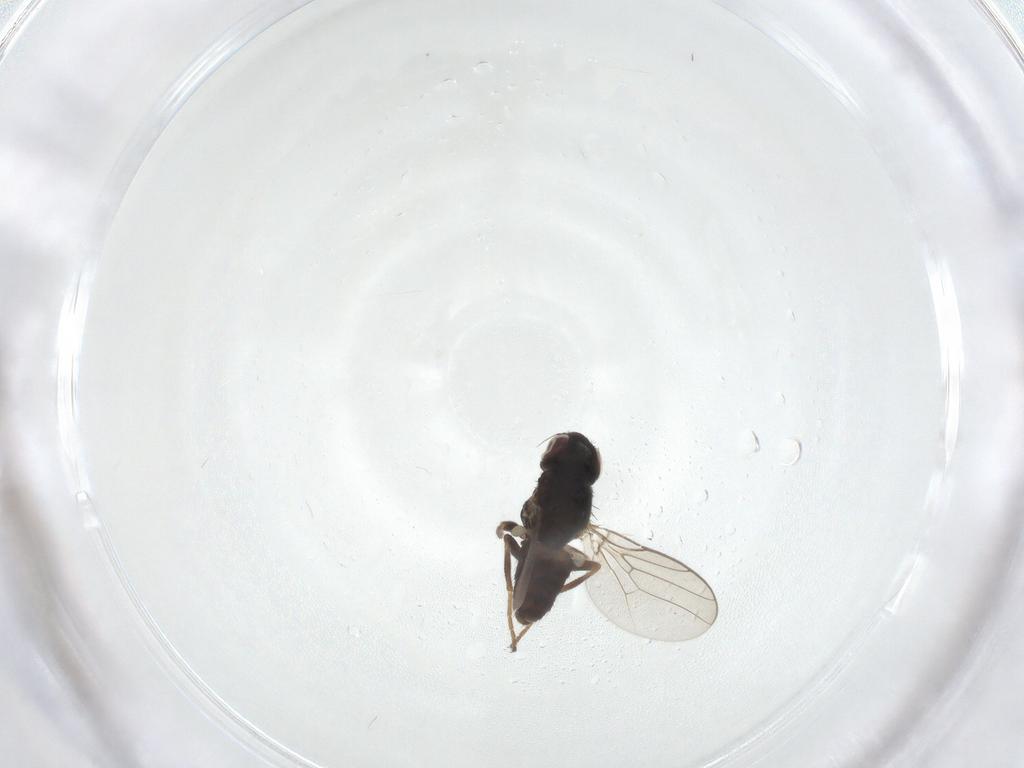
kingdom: Animalia
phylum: Arthropoda
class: Insecta
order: Diptera
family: Chloropidae
